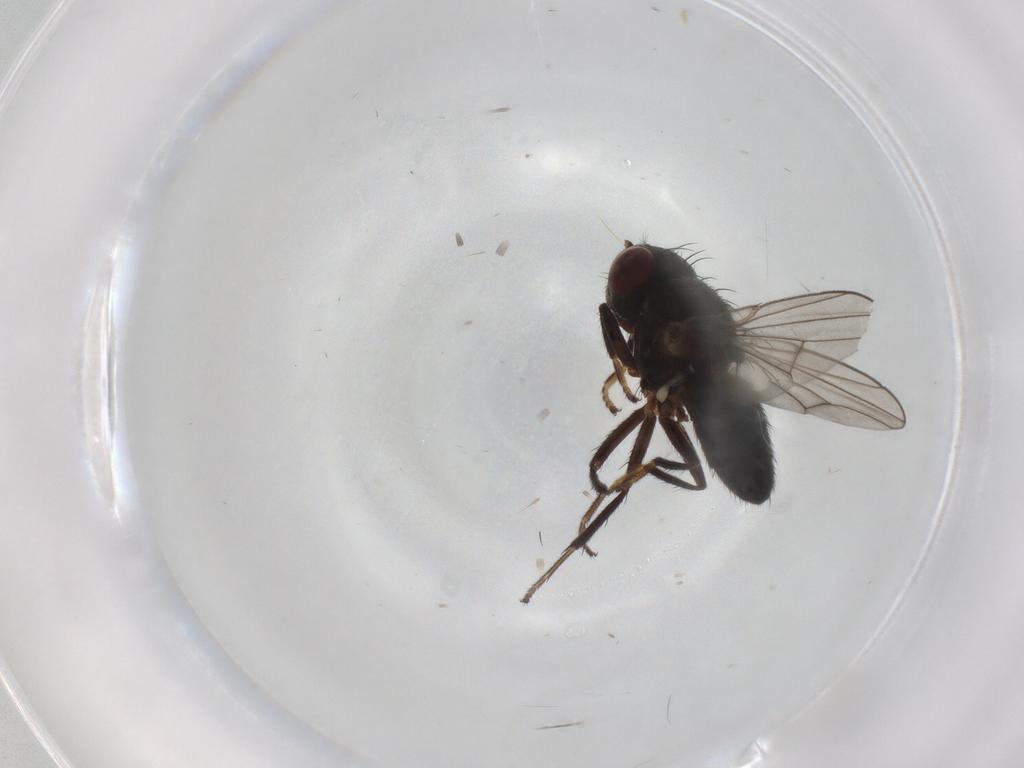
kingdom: Animalia
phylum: Arthropoda
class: Insecta
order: Diptera
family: Ephydridae
